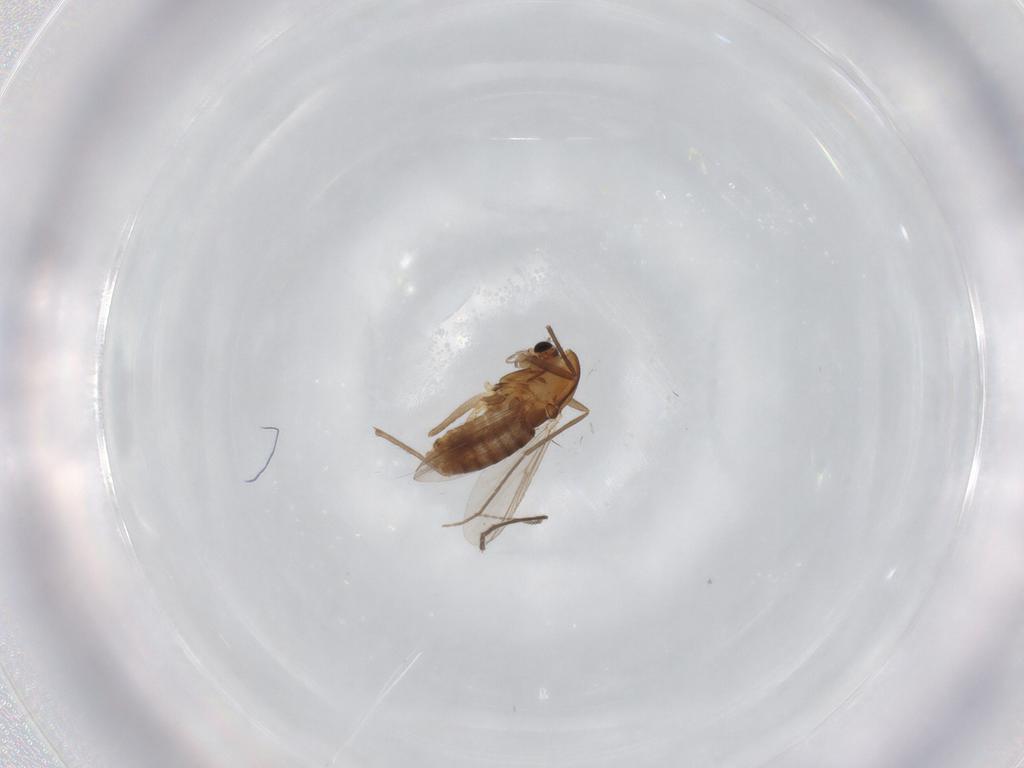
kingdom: Animalia
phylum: Arthropoda
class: Insecta
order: Diptera
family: Chironomidae
